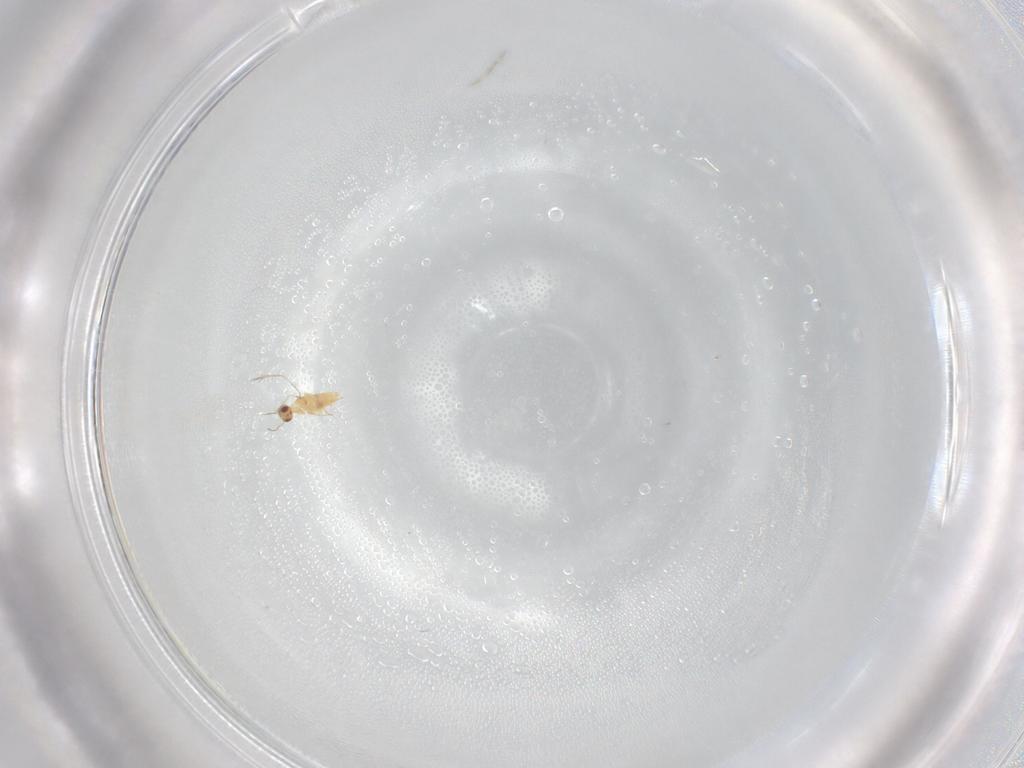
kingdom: Animalia
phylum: Arthropoda
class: Insecta
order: Hymenoptera
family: Mymaridae
